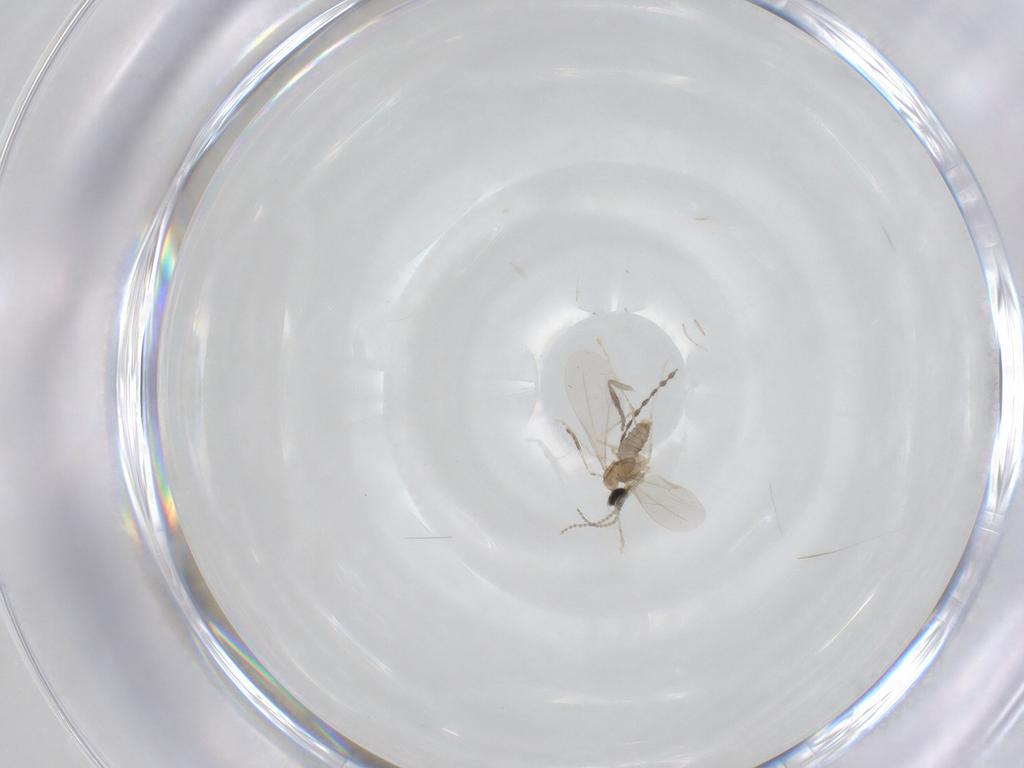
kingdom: Animalia
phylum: Arthropoda
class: Insecta
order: Diptera
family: Cecidomyiidae
